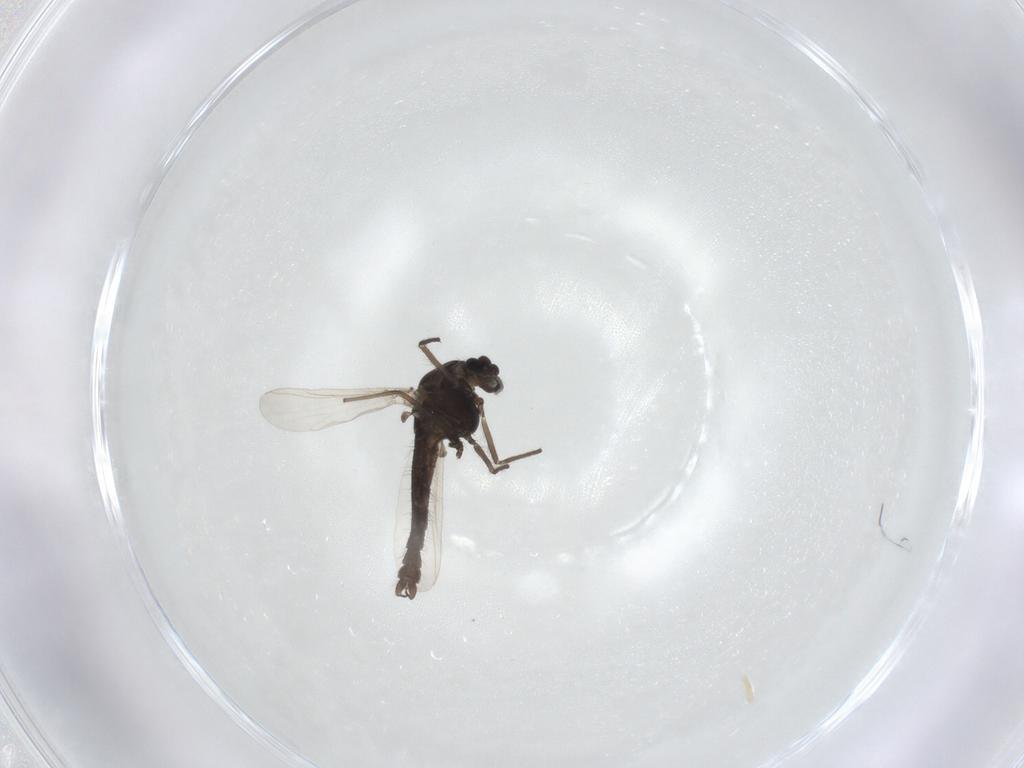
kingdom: Animalia
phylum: Arthropoda
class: Insecta
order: Diptera
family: Chironomidae
